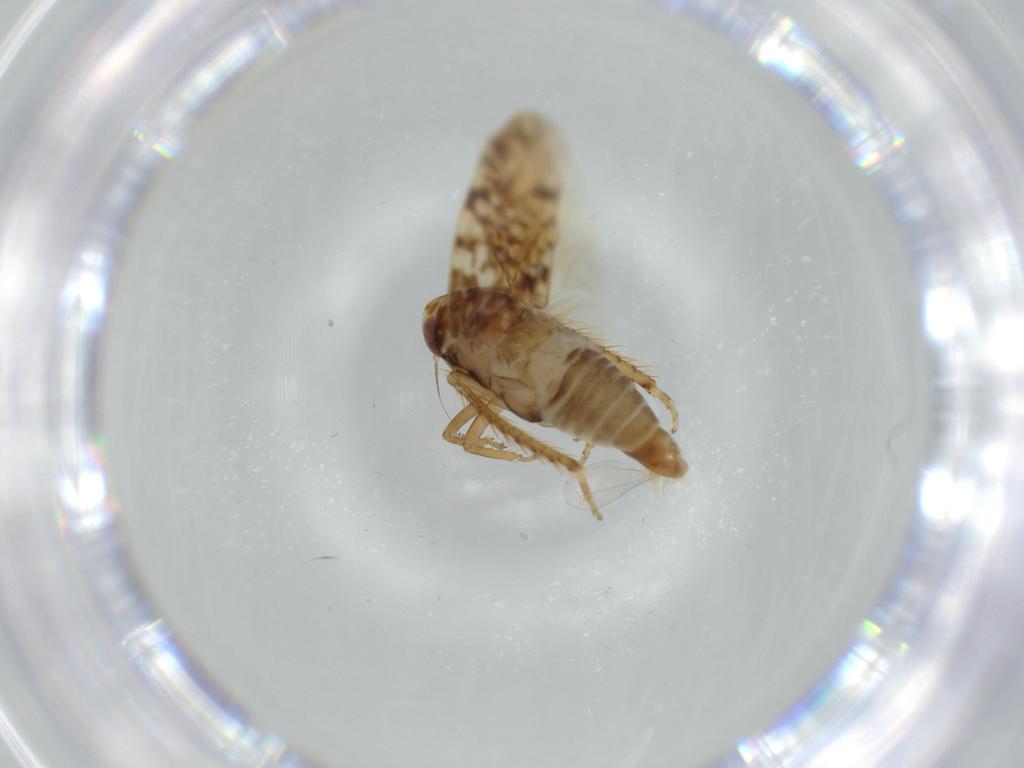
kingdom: Animalia
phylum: Arthropoda
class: Insecta
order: Hemiptera
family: Cicadellidae
